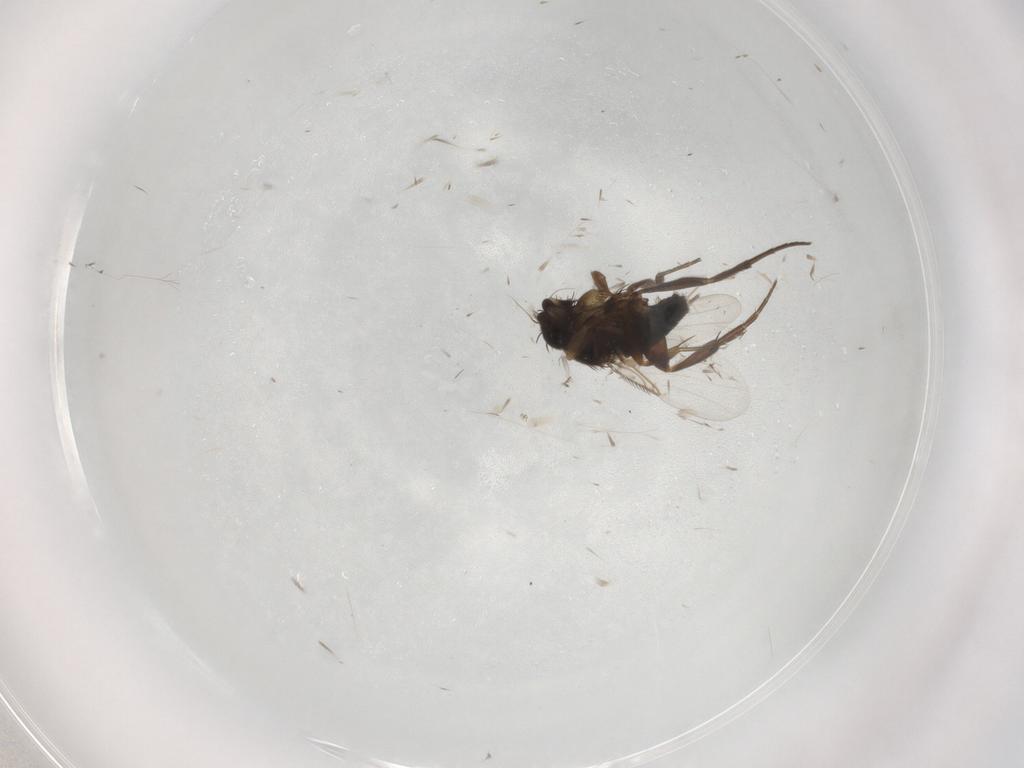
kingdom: Animalia
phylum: Arthropoda
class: Insecta
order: Diptera
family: Phoridae
